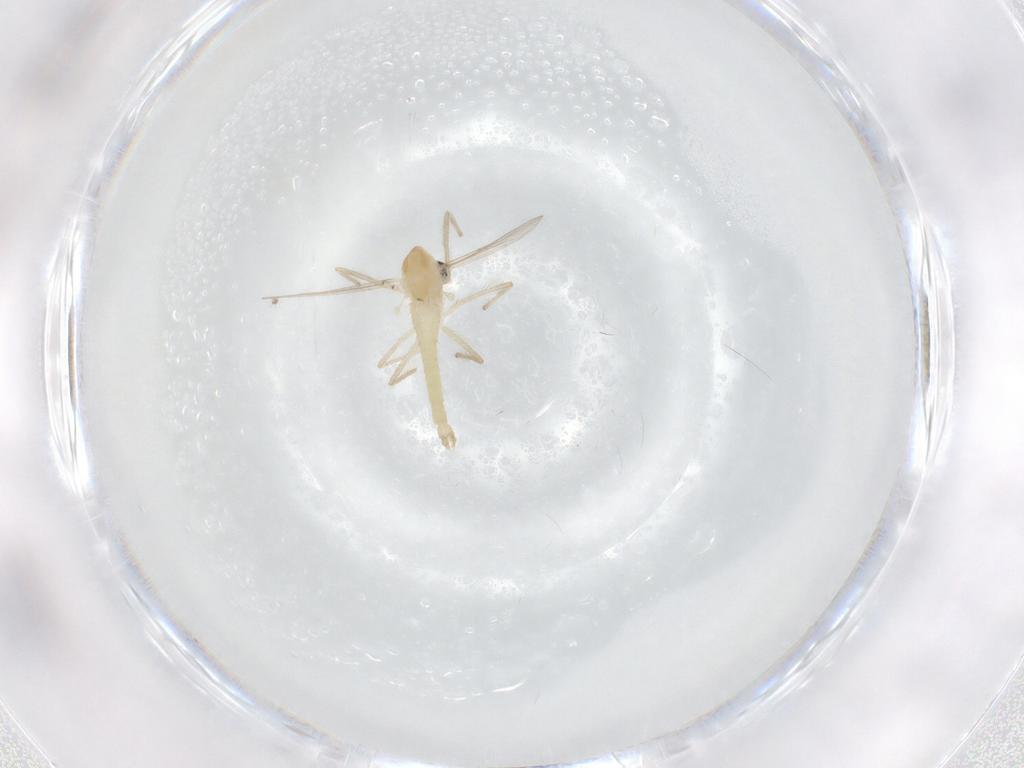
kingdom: Animalia
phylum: Arthropoda
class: Insecta
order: Diptera
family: Chironomidae
